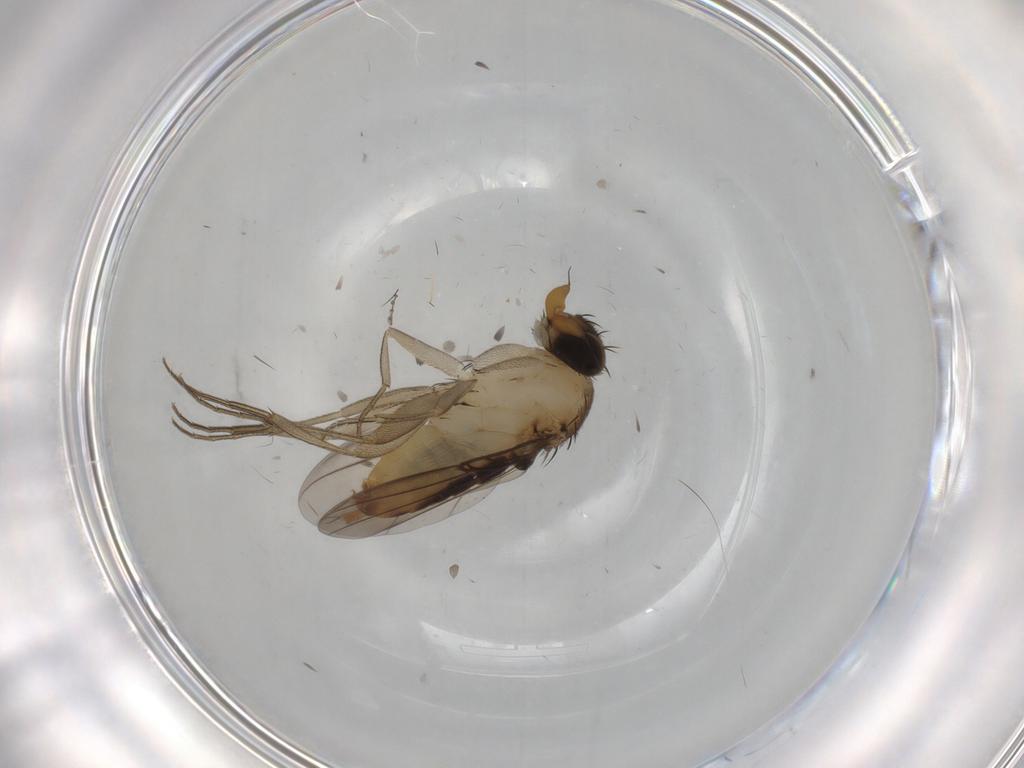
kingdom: Animalia
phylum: Arthropoda
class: Insecta
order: Diptera
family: Phoridae
